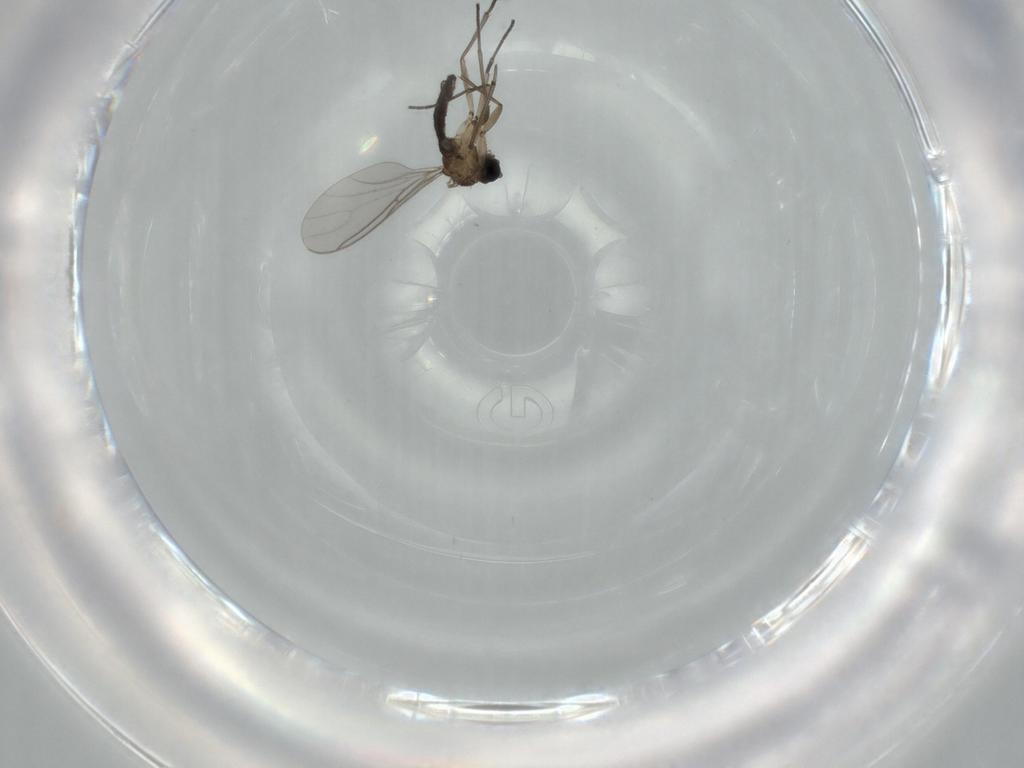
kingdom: Animalia
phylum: Arthropoda
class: Insecta
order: Diptera
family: Sciaridae
